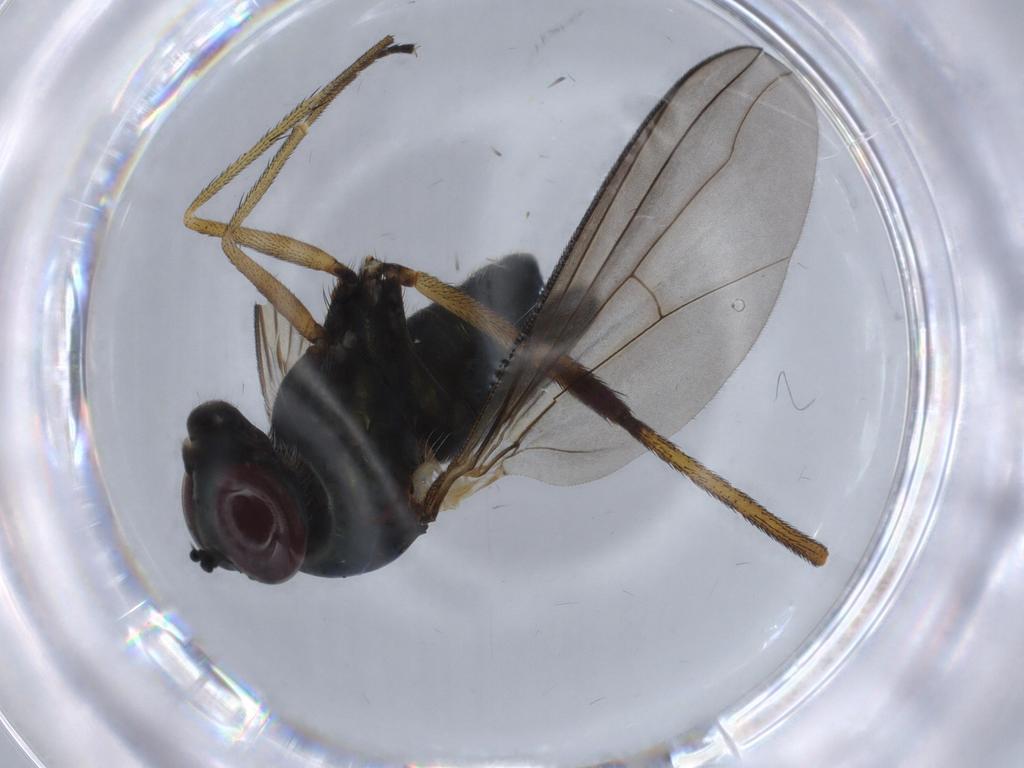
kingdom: Animalia
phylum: Arthropoda
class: Insecta
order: Diptera
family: Dolichopodidae
